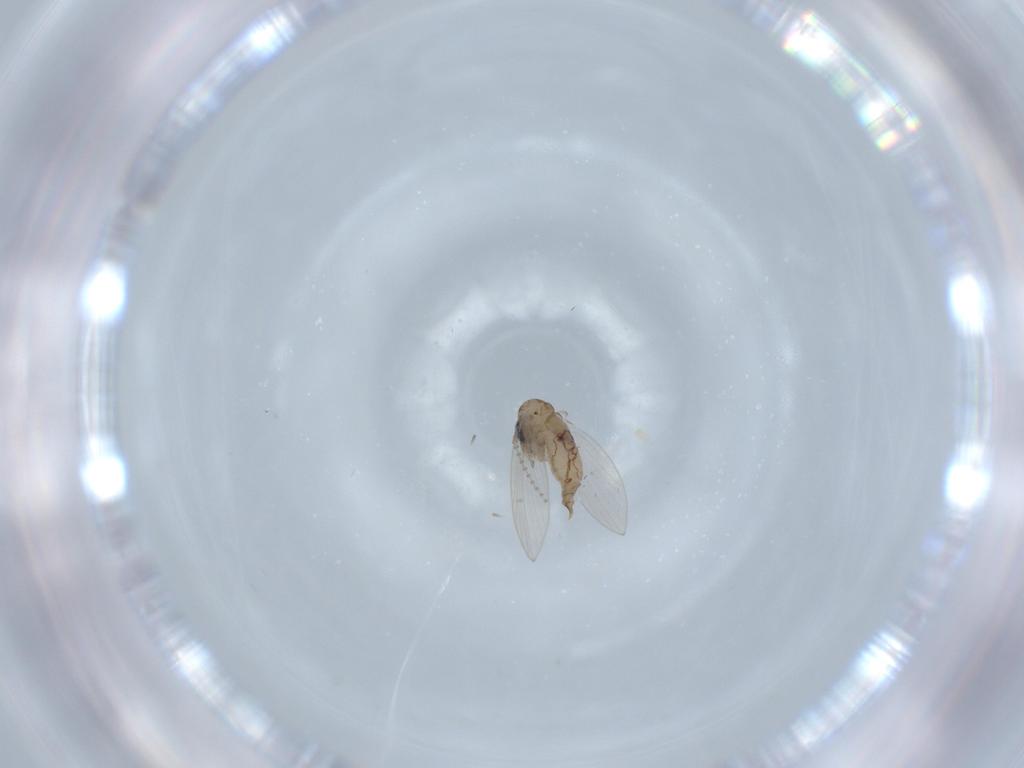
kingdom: Animalia
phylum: Arthropoda
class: Insecta
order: Diptera
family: Psychodidae
